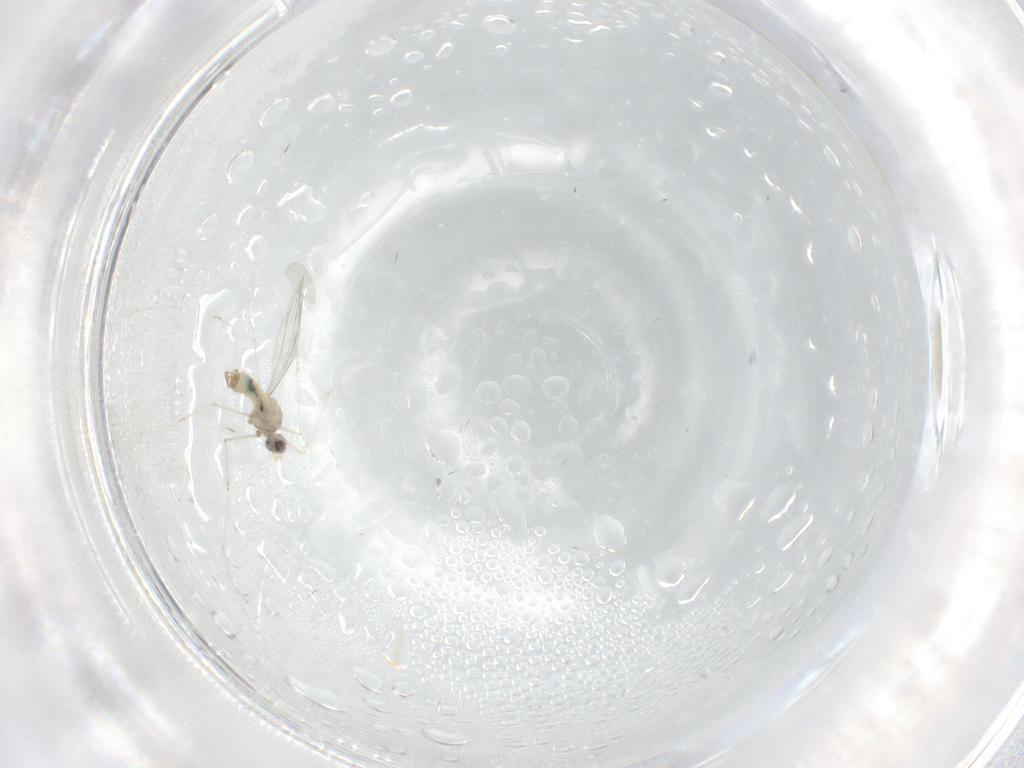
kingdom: Animalia
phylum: Arthropoda
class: Insecta
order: Diptera
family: Cecidomyiidae
